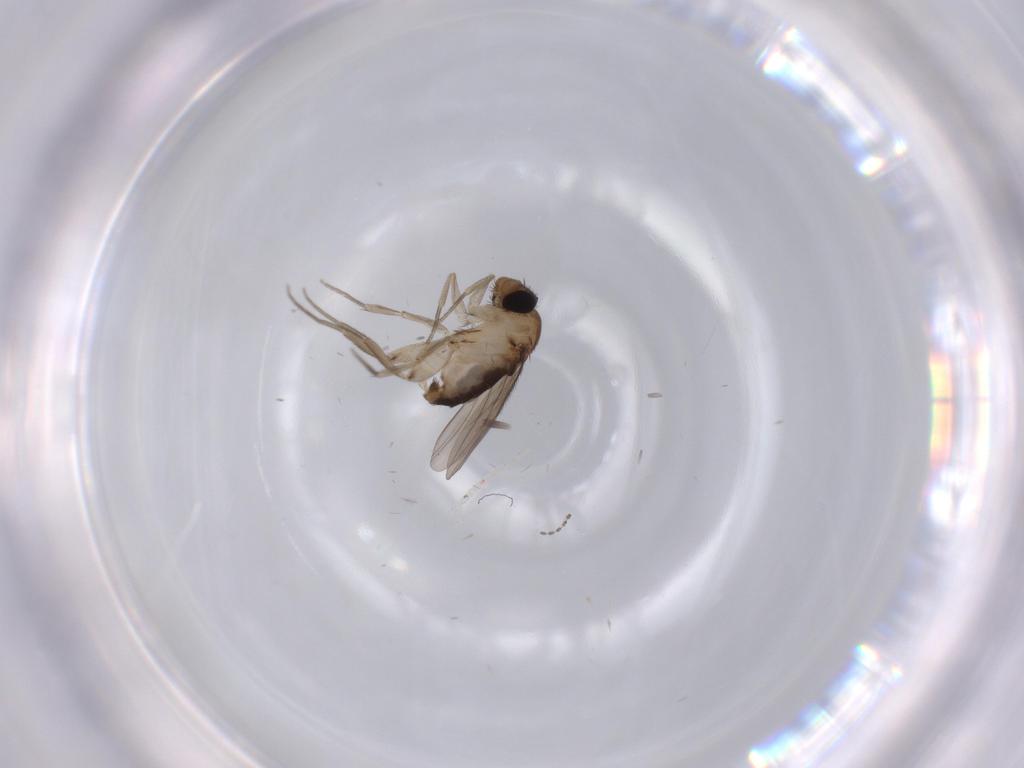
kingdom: Animalia
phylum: Arthropoda
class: Insecta
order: Diptera
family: Phoridae
